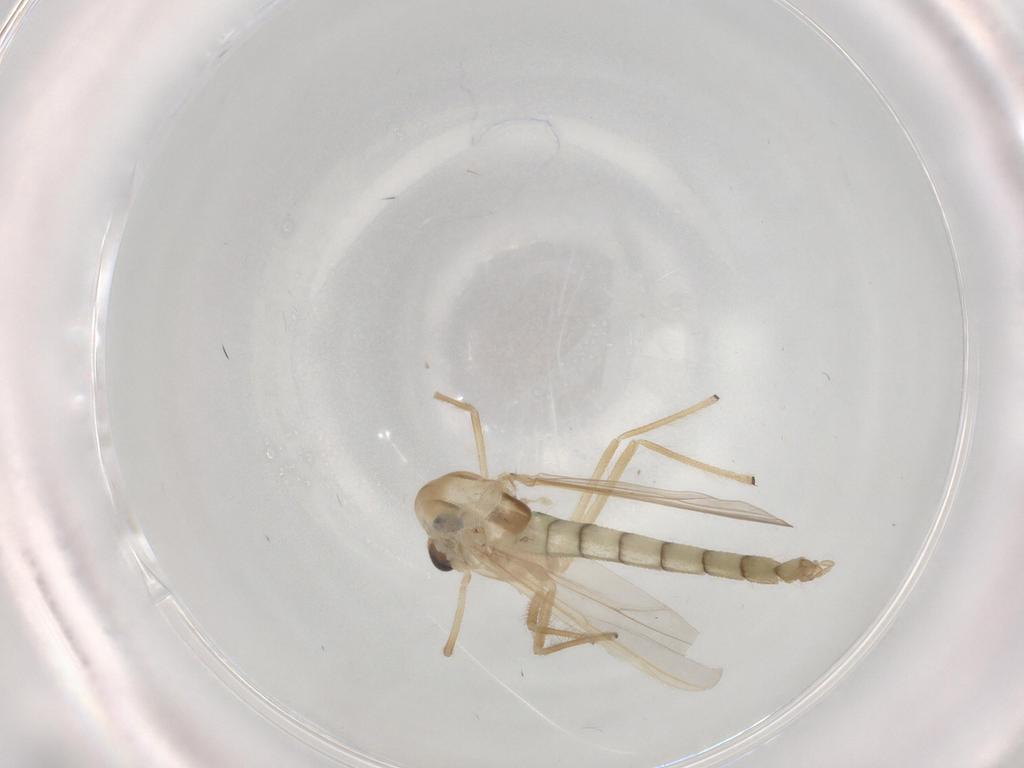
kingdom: Animalia
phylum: Arthropoda
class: Insecta
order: Diptera
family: Chironomidae
